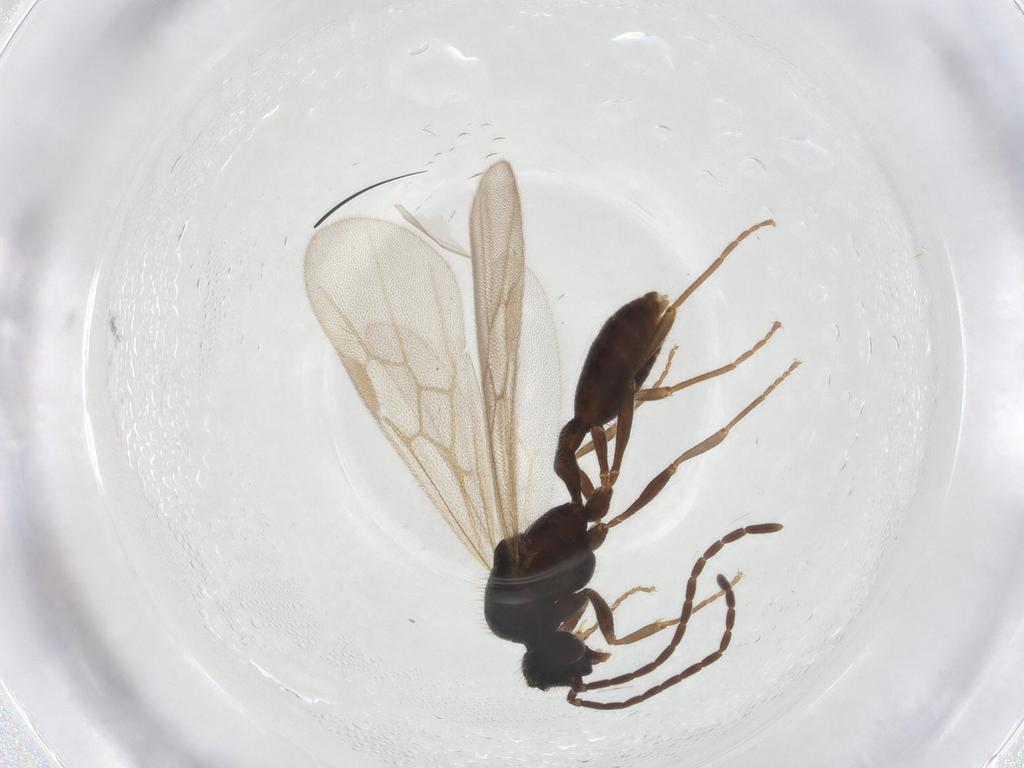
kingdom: Animalia
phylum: Arthropoda
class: Insecta
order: Hymenoptera
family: Formicidae
